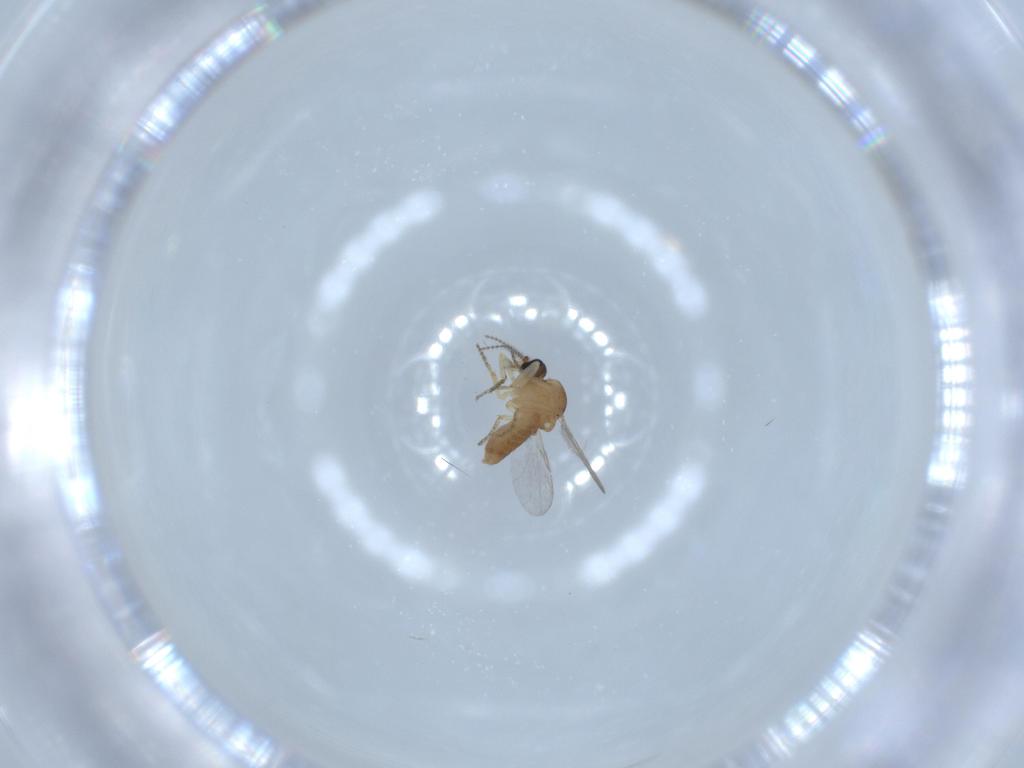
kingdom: Animalia
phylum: Arthropoda
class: Insecta
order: Diptera
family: Ceratopogonidae
